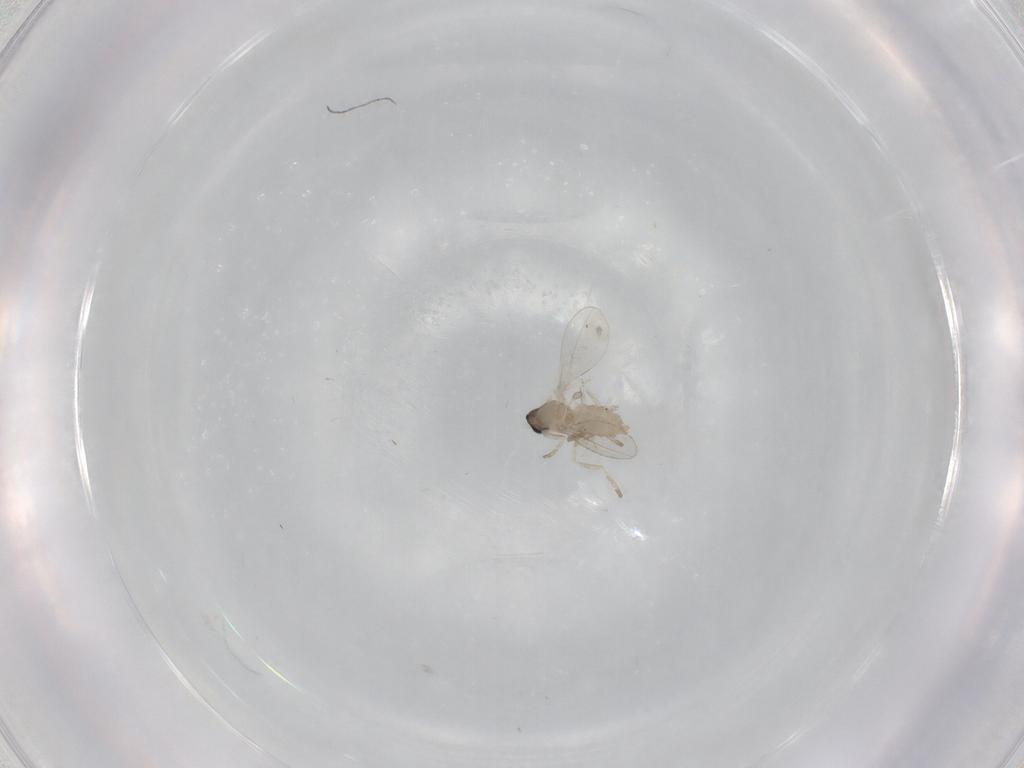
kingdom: Animalia
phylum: Arthropoda
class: Insecta
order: Diptera
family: Cecidomyiidae
